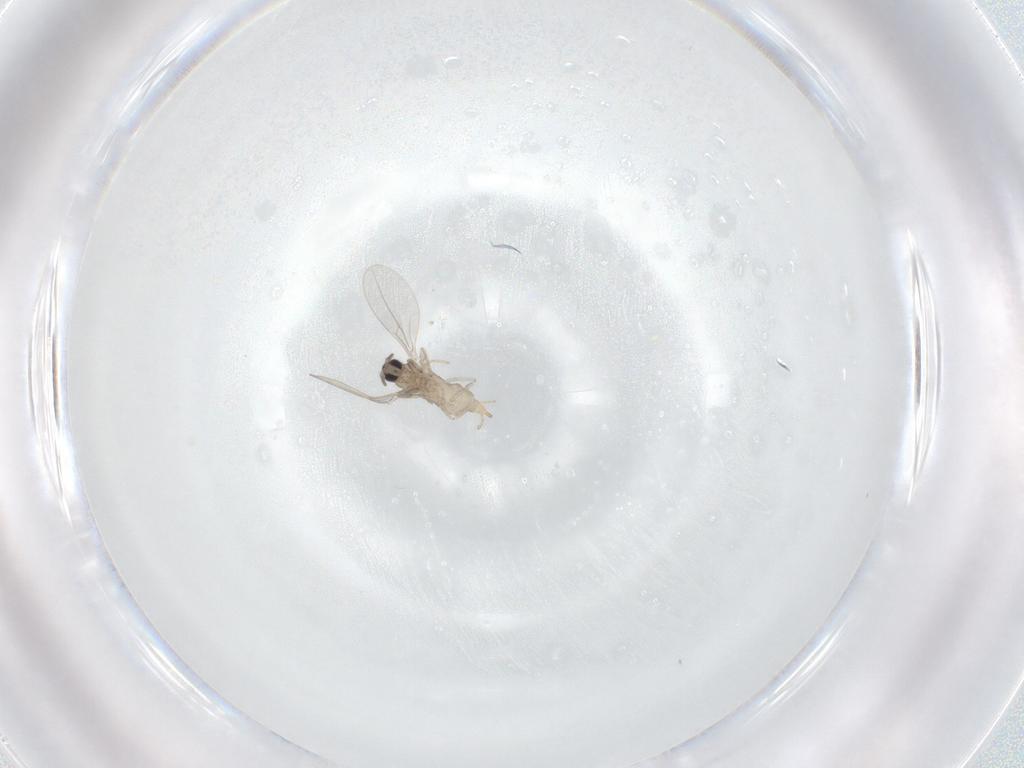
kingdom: Animalia
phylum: Arthropoda
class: Insecta
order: Diptera
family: Cecidomyiidae
